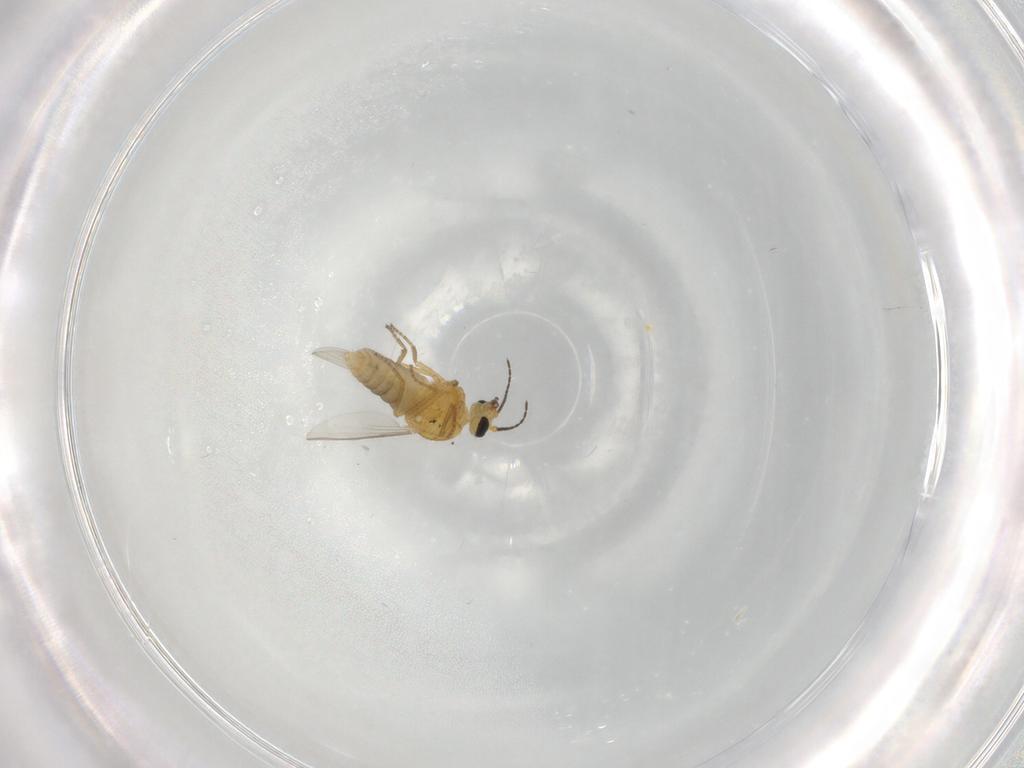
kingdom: Animalia
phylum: Arthropoda
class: Insecta
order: Diptera
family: Ceratopogonidae
